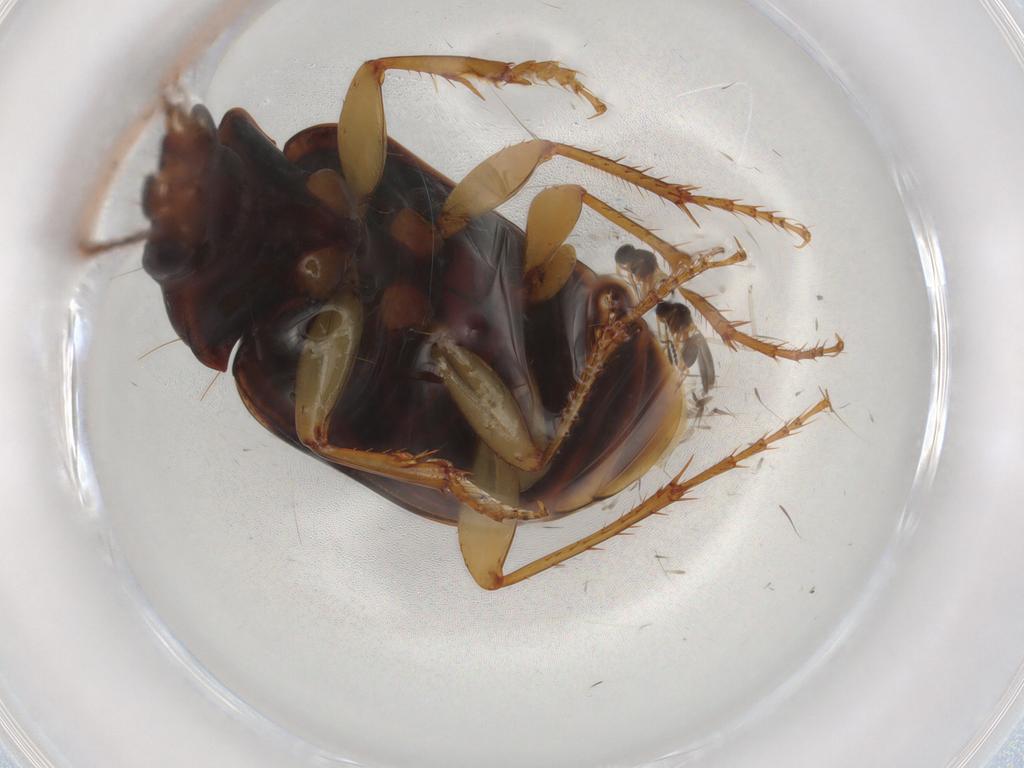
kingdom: Animalia
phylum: Arthropoda
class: Insecta
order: Coleoptera
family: Carabidae
